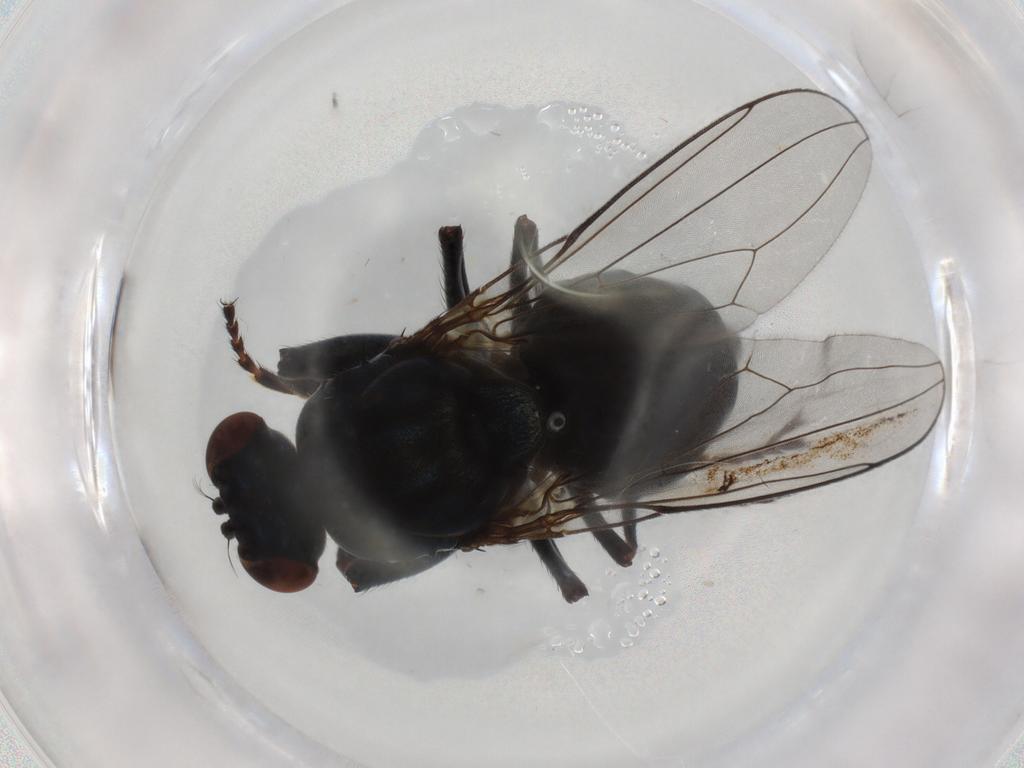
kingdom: Animalia
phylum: Arthropoda
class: Insecta
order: Diptera
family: Ephydridae
